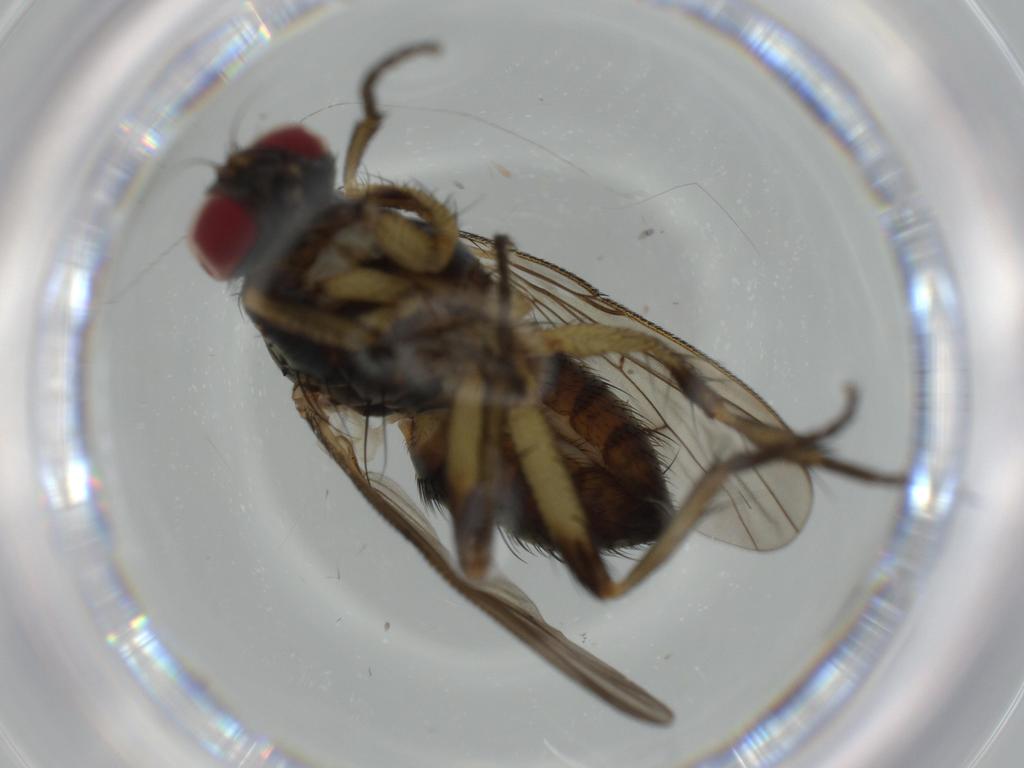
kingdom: Animalia
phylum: Arthropoda
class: Insecta
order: Diptera
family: Muscidae
